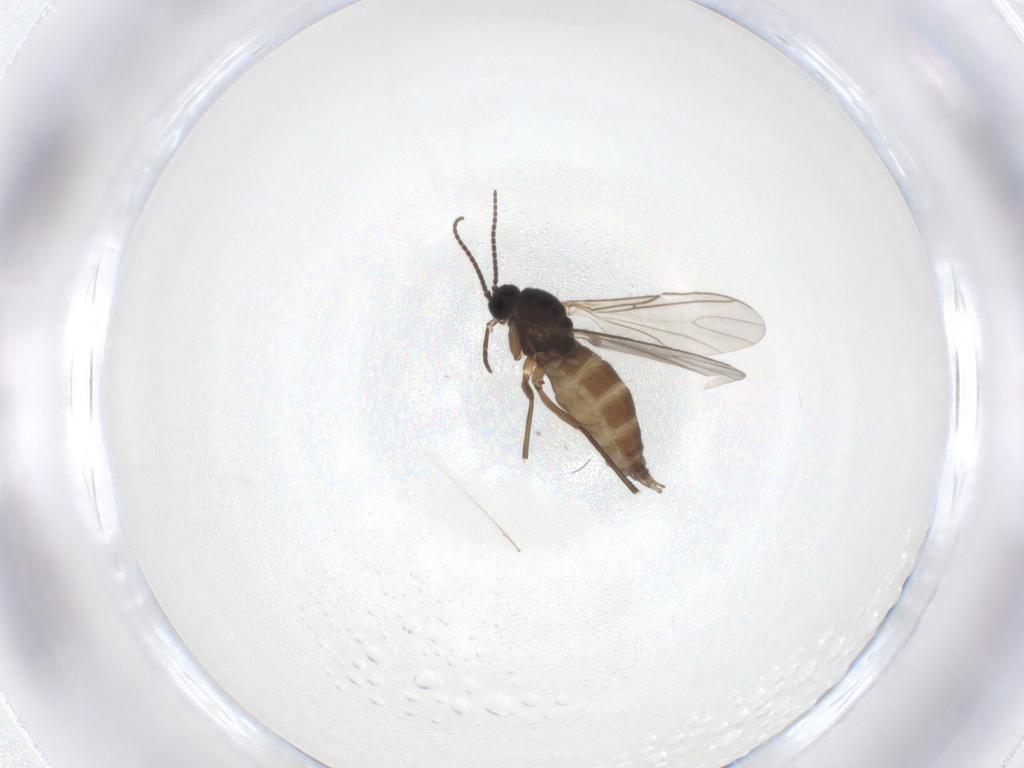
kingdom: Animalia
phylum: Arthropoda
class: Insecta
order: Diptera
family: Sciaridae
